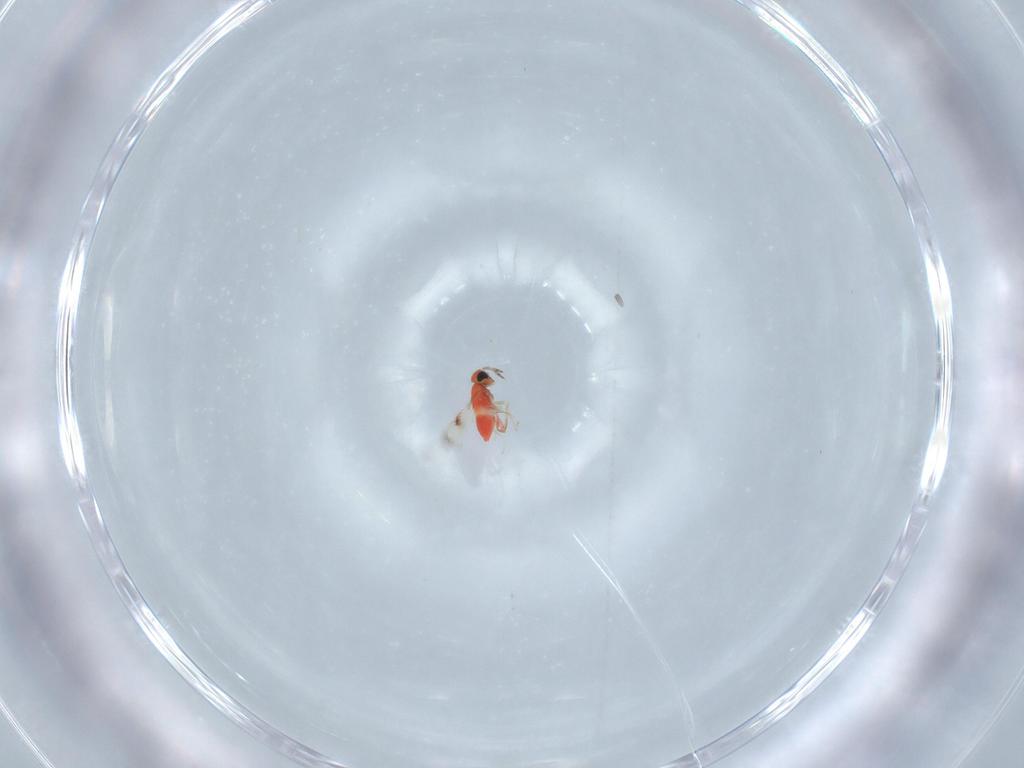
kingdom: Animalia
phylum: Arthropoda
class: Insecta
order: Hymenoptera
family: Trichogrammatidae
